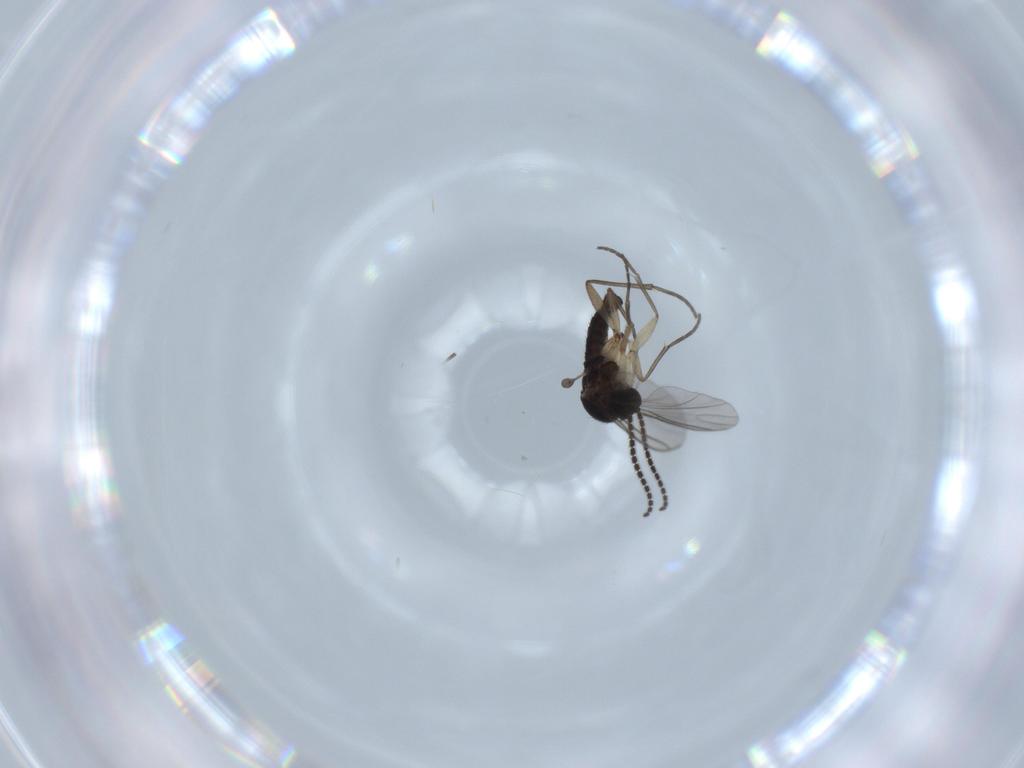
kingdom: Animalia
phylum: Arthropoda
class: Insecta
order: Diptera
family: Sciaridae
